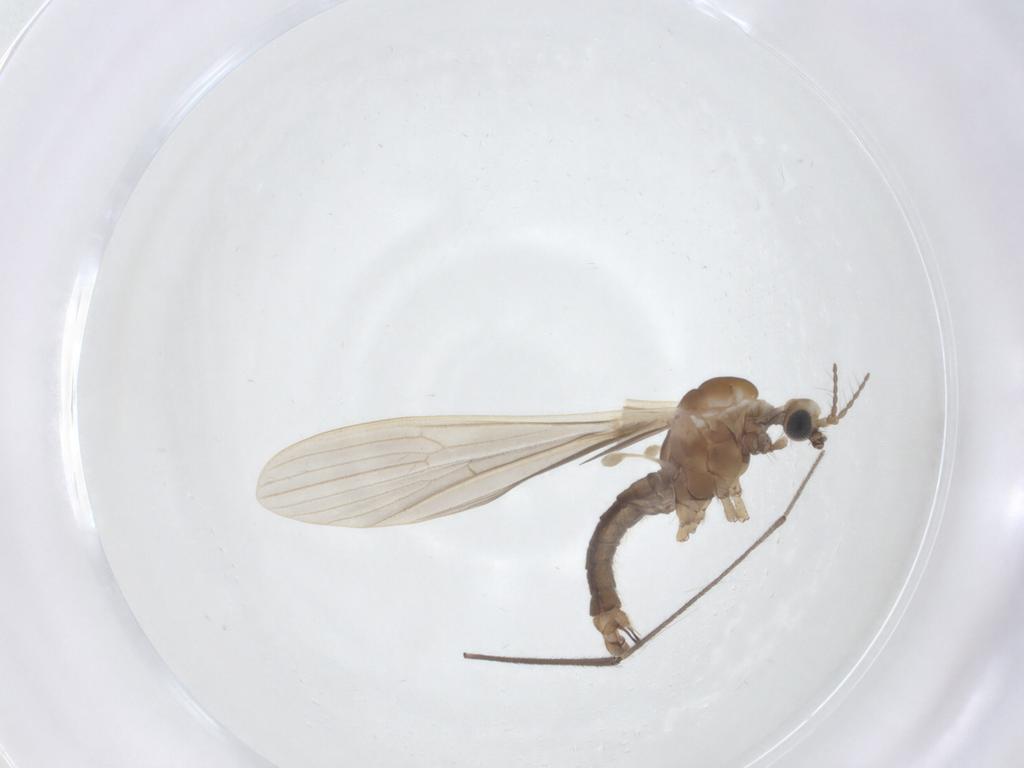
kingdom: Animalia
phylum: Arthropoda
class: Insecta
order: Diptera
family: Limoniidae
